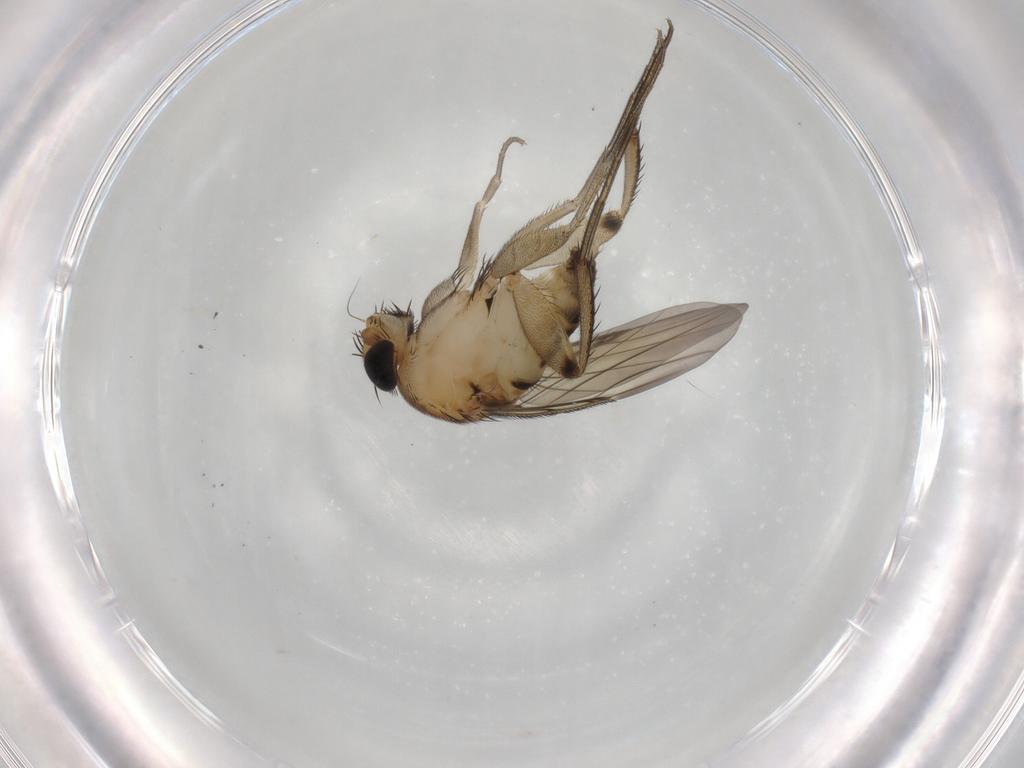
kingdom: Animalia
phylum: Arthropoda
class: Insecta
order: Diptera
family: Phoridae
